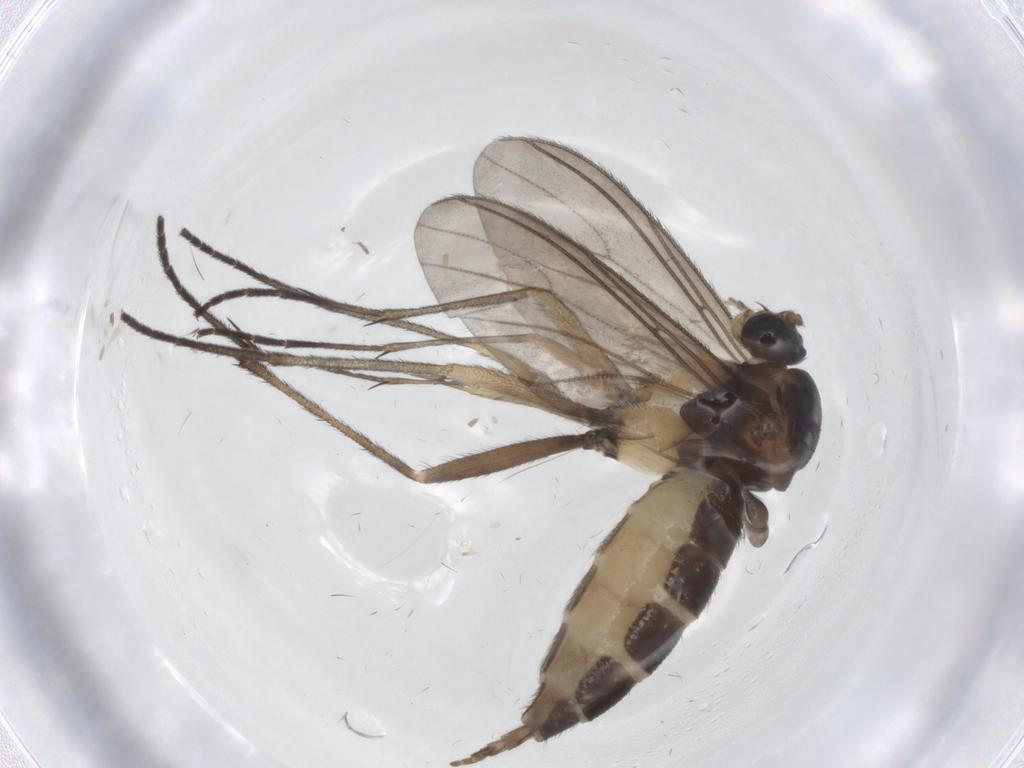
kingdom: Animalia
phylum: Arthropoda
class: Insecta
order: Diptera
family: Sciaridae
